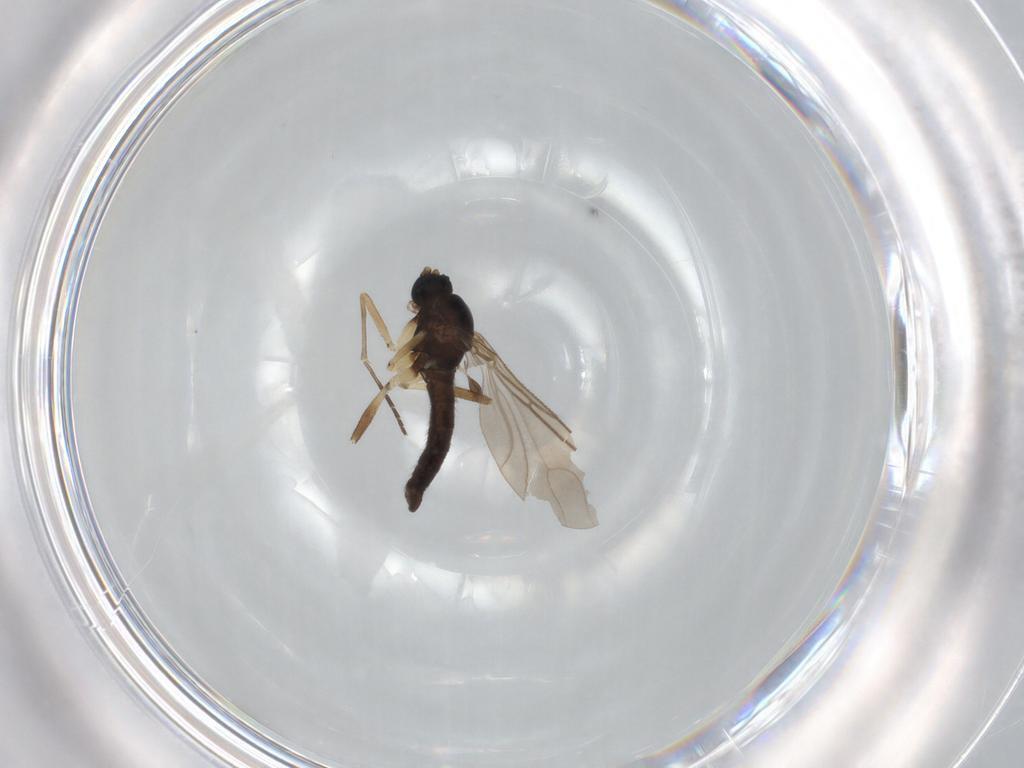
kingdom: Animalia
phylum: Arthropoda
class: Insecta
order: Diptera
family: Sciaridae
